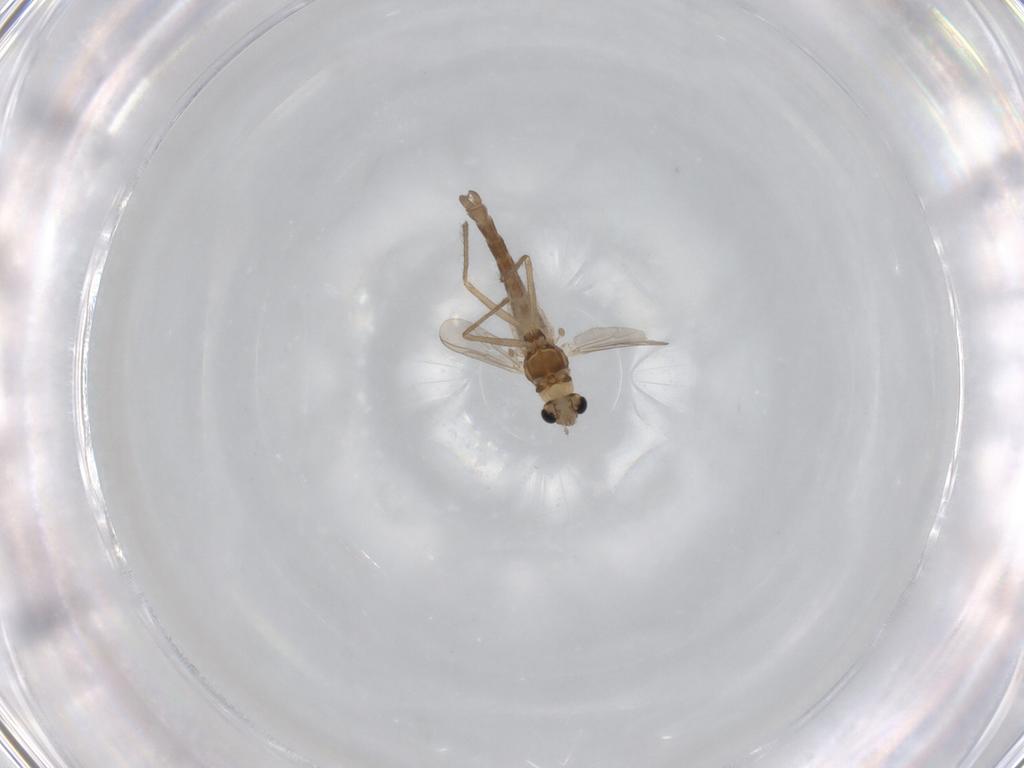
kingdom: Animalia
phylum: Arthropoda
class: Insecta
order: Diptera
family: Chironomidae
